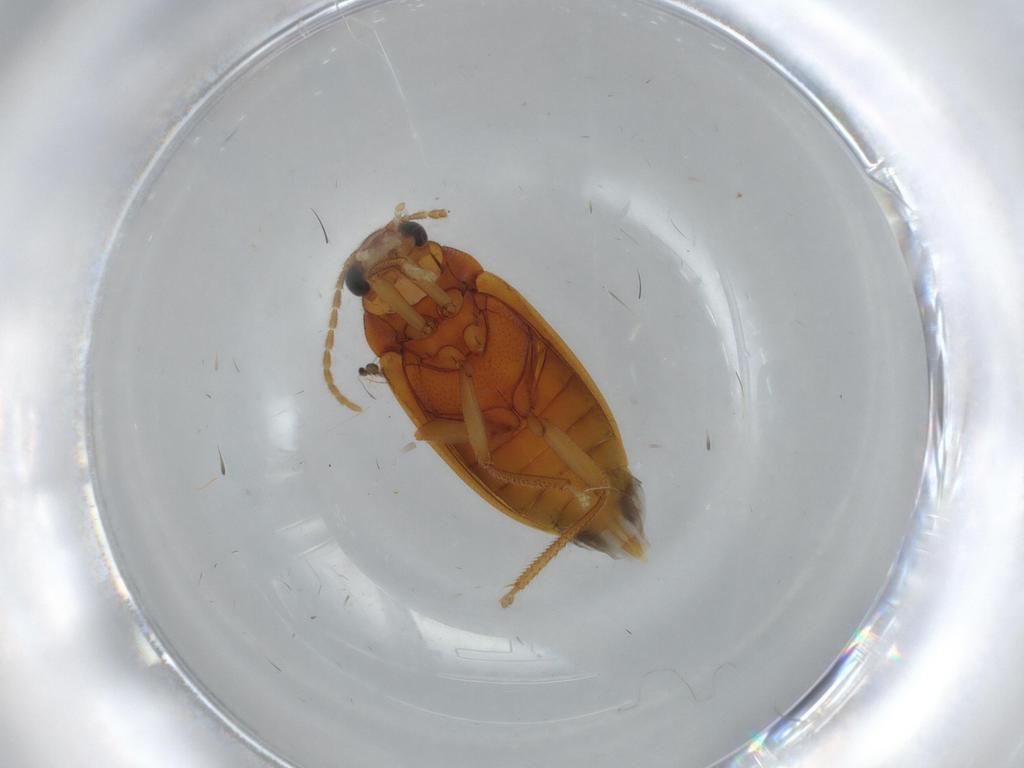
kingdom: Animalia
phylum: Arthropoda
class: Insecta
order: Coleoptera
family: Ptilodactylidae
